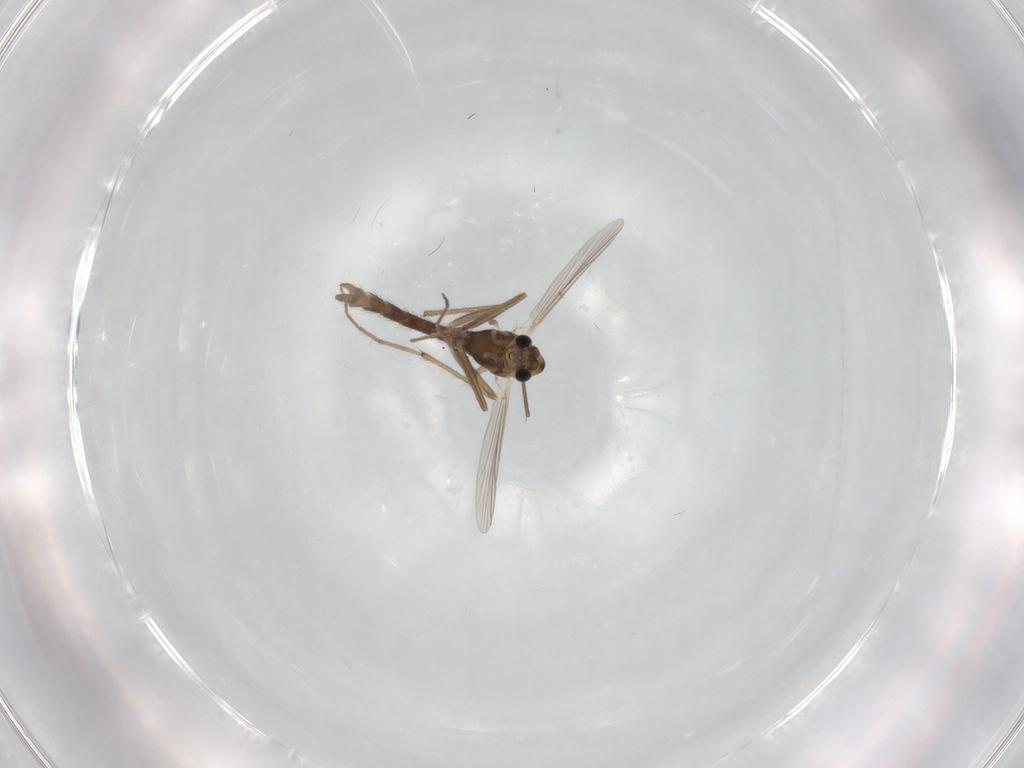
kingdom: Animalia
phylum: Arthropoda
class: Insecta
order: Diptera
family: Chironomidae
